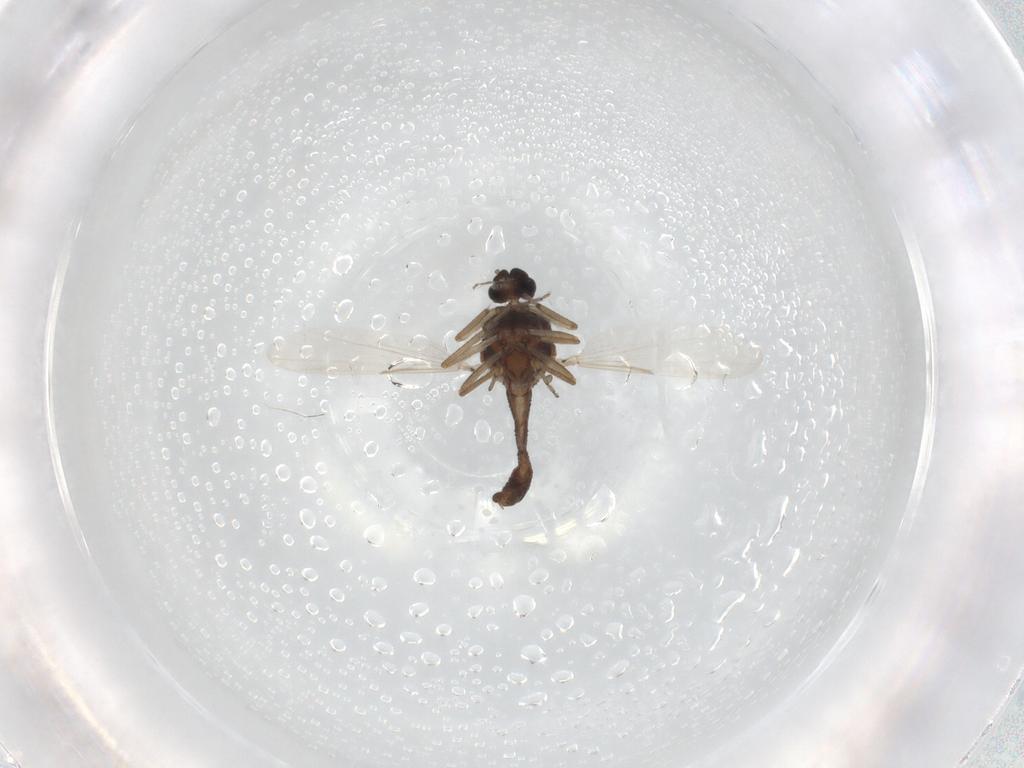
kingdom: Animalia
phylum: Arthropoda
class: Insecta
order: Diptera
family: Ceratopogonidae
